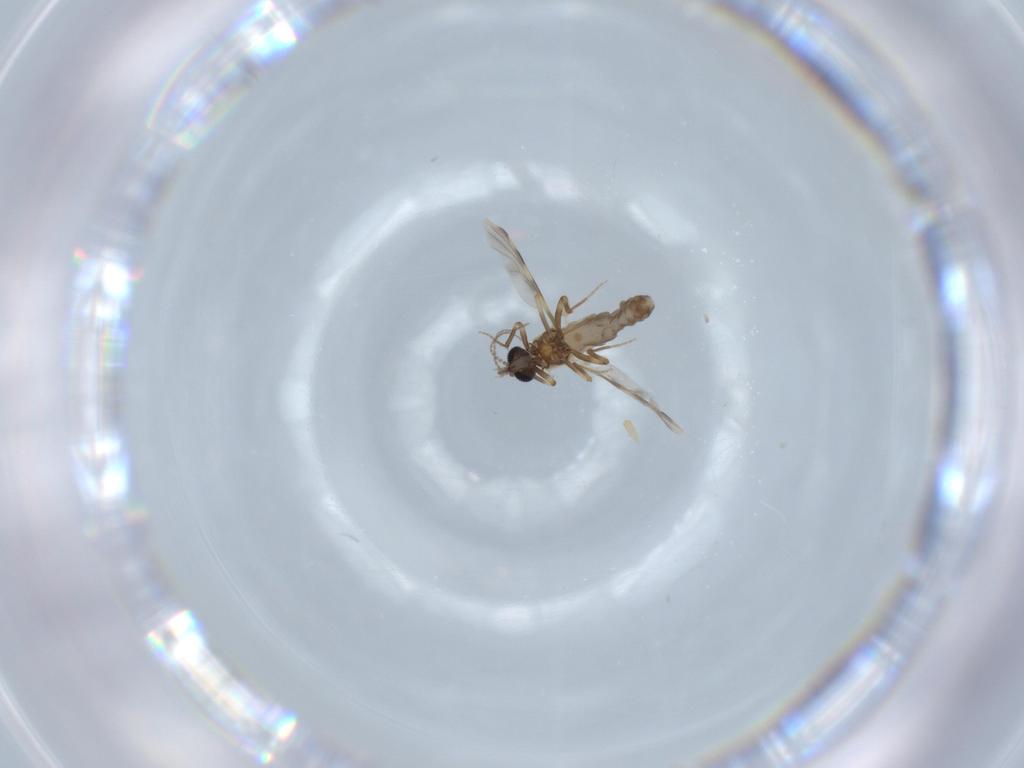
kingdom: Animalia
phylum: Arthropoda
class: Insecta
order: Diptera
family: Ceratopogonidae
